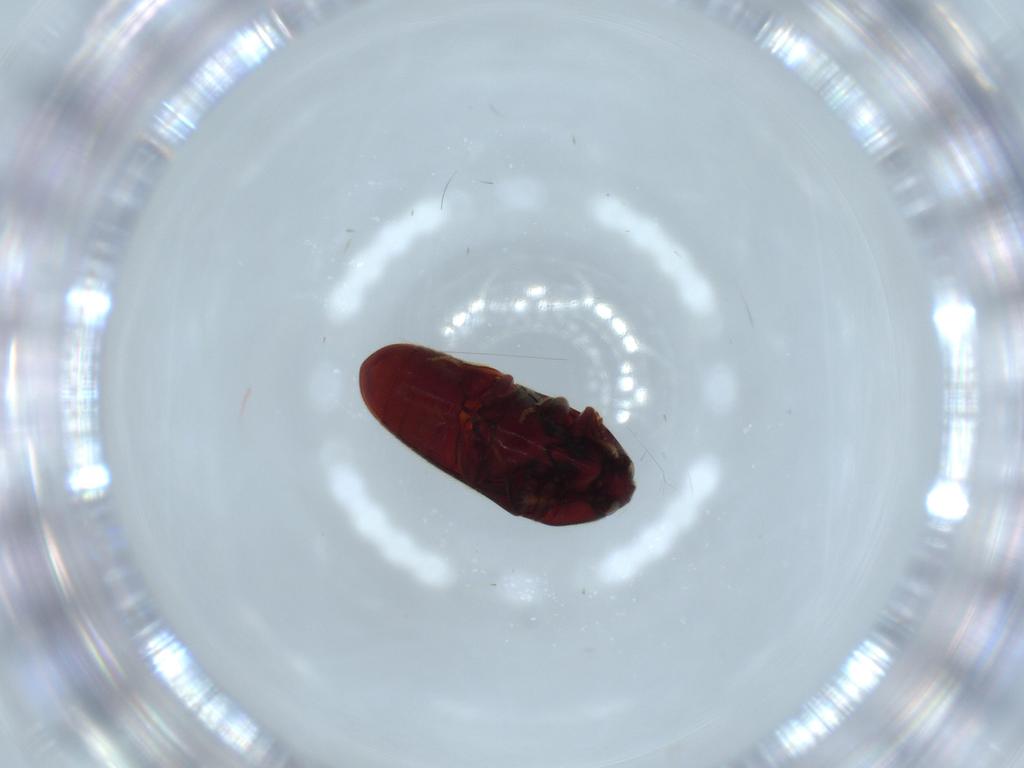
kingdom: Animalia
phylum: Arthropoda
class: Insecta
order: Coleoptera
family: Throscidae
